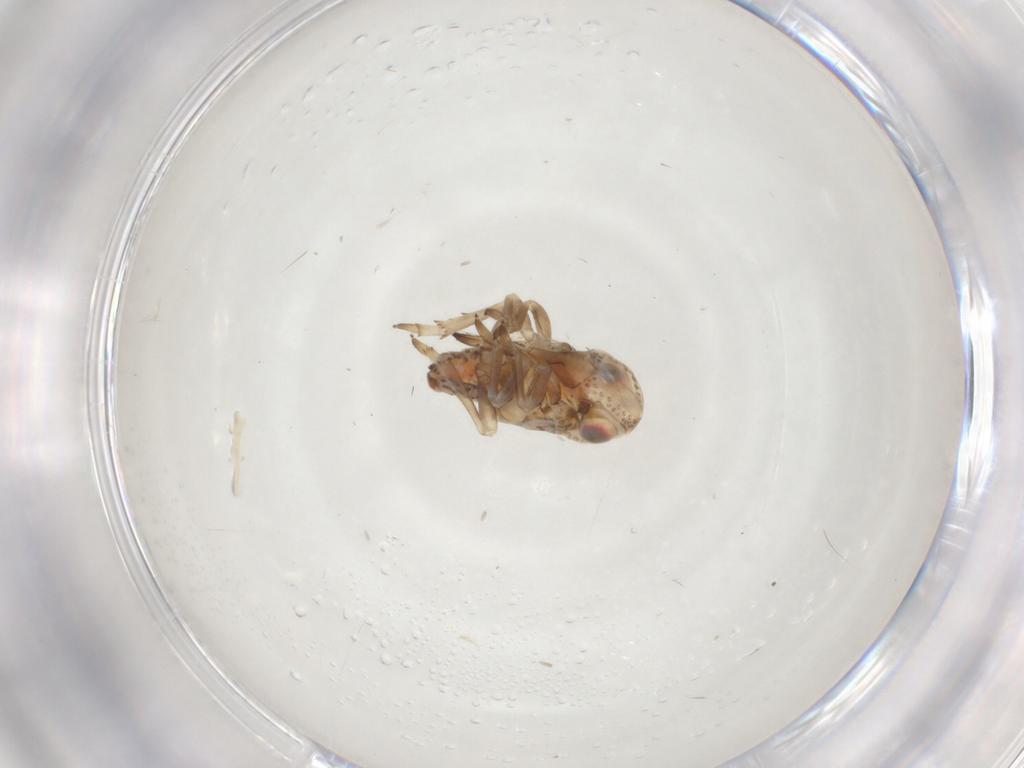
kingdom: Animalia
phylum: Arthropoda
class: Insecta
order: Hemiptera
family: Fulgoroidea_incertae_sedis
